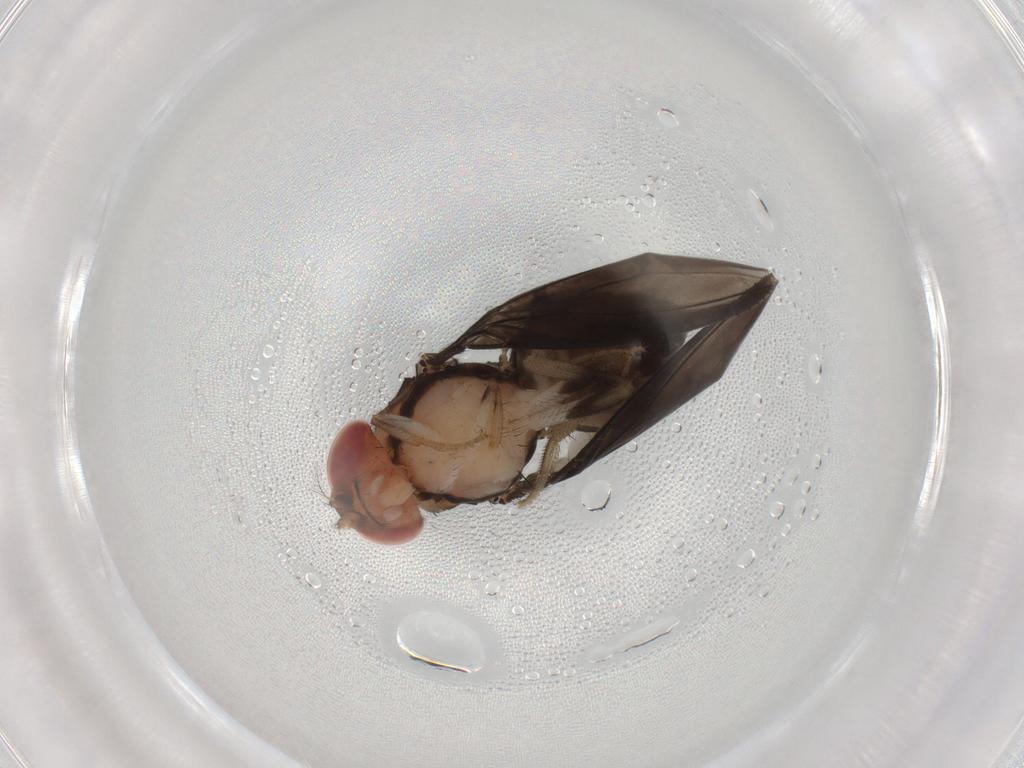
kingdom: Animalia
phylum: Arthropoda
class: Insecta
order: Diptera
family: Drosophilidae
